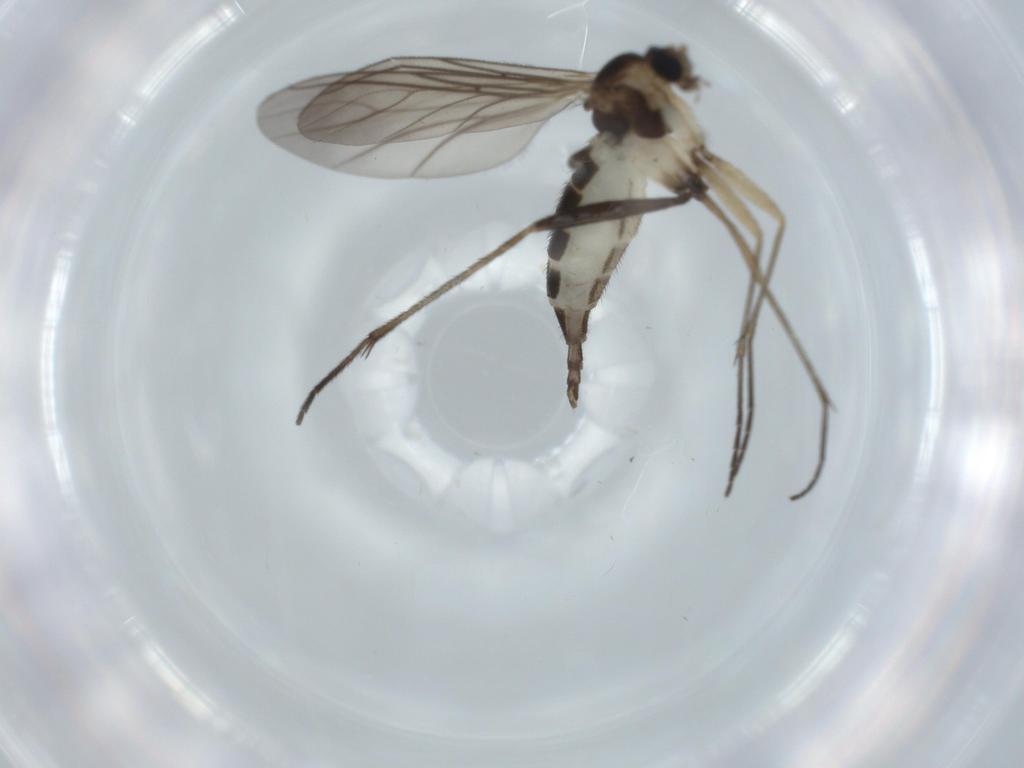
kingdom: Animalia
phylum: Arthropoda
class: Insecta
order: Diptera
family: Sciaridae
